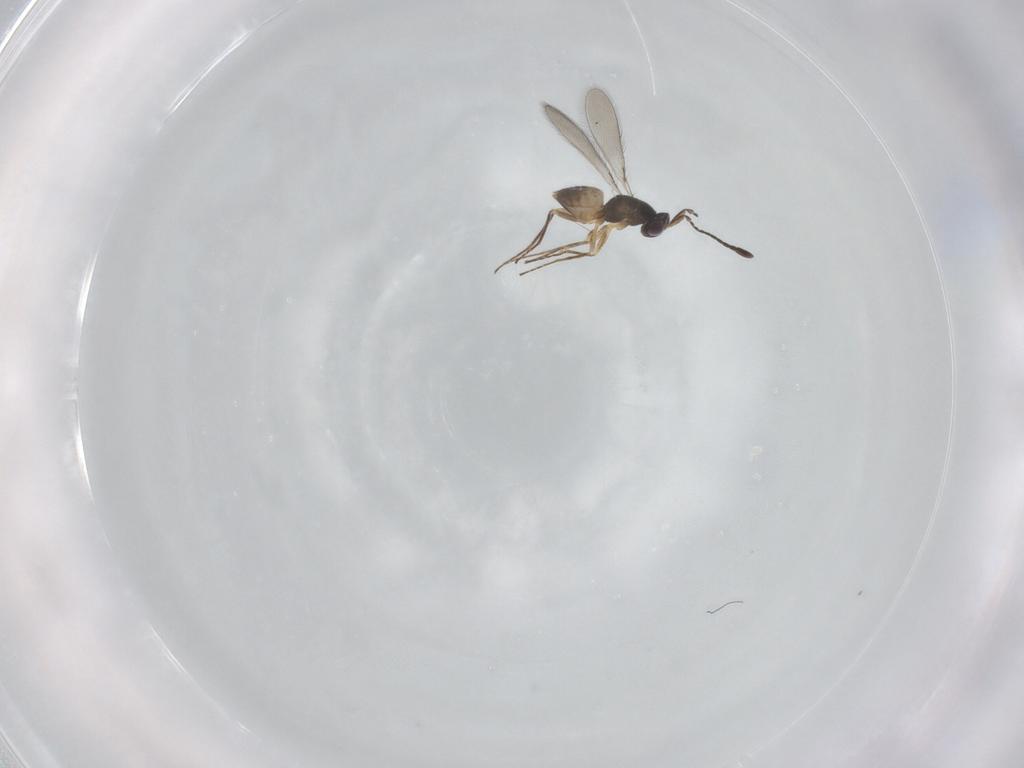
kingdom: Animalia
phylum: Arthropoda
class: Insecta
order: Hymenoptera
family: Mymaridae
